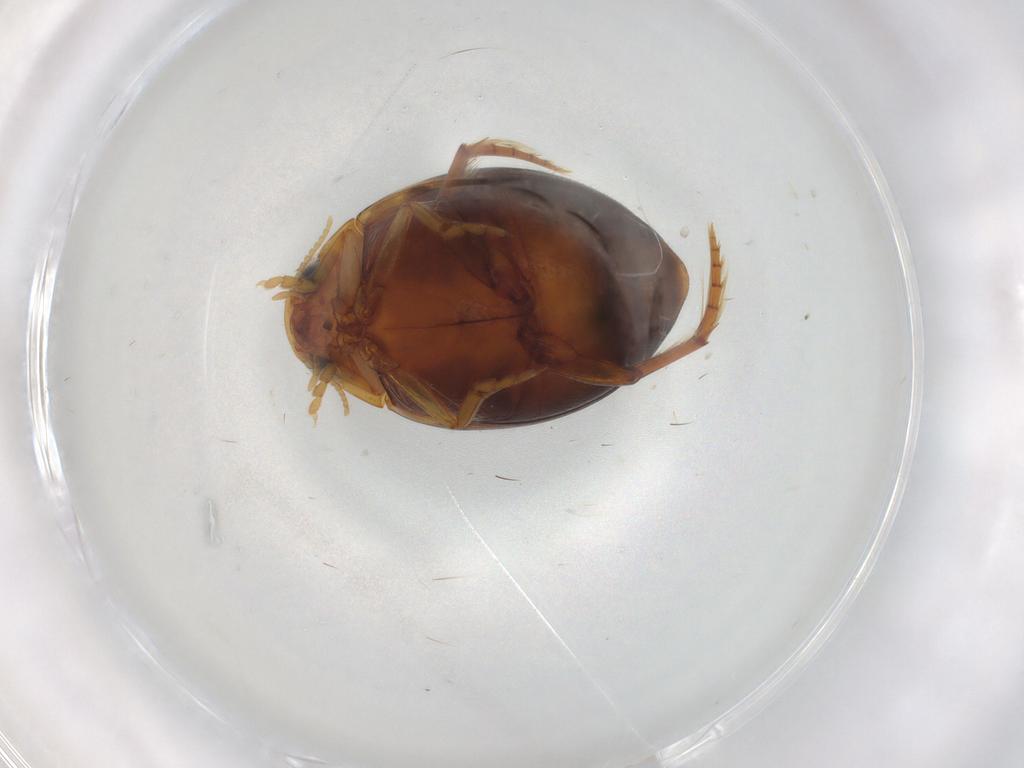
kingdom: Animalia
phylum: Arthropoda
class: Insecta
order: Coleoptera
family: Dytiscidae
